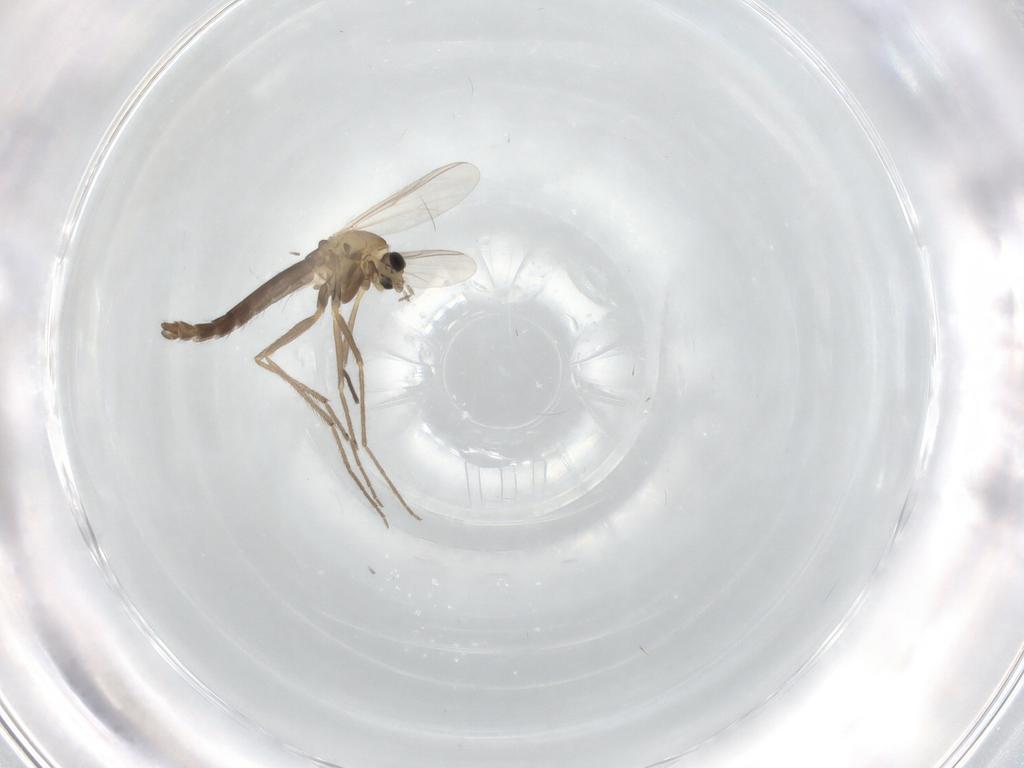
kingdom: Animalia
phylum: Arthropoda
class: Insecta
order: Diptera
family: Chironomidae
